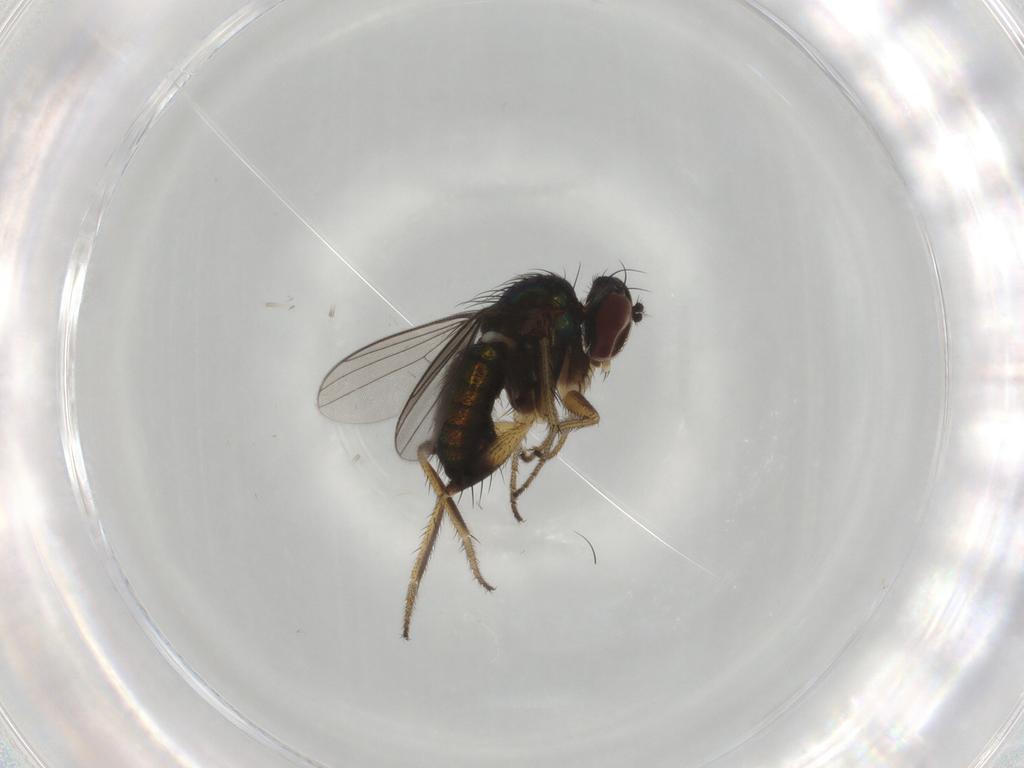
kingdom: Animalia
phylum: Arthropoda
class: Insecta
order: Diptera
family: Dolichopodidae
